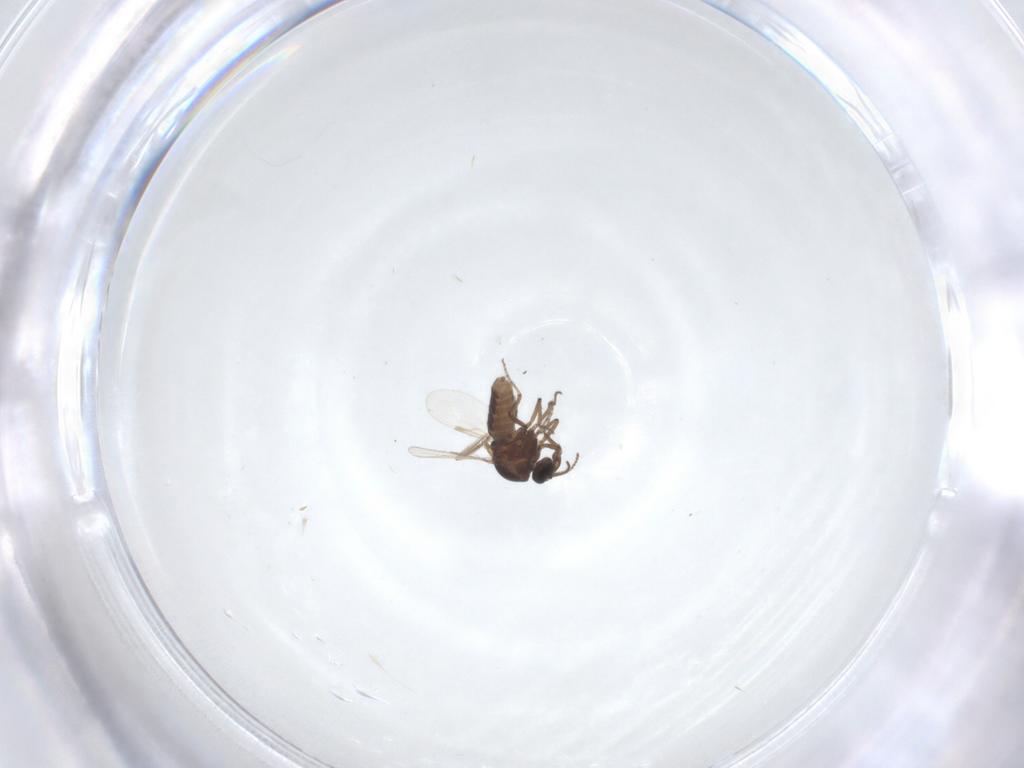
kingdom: Animalia
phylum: Arthropoda
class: Insecta
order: Diptera
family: Ceratopogonidae
